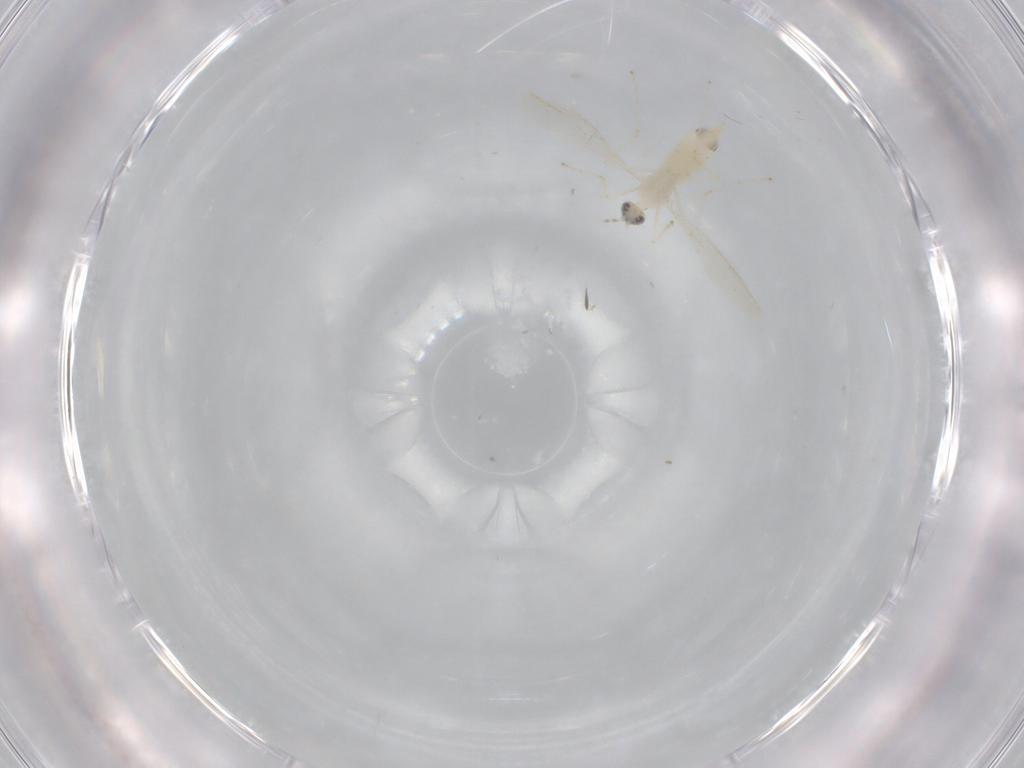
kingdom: Animalia
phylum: Arthropoda
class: Insecta
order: Diptera
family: Cecidomyiidae
